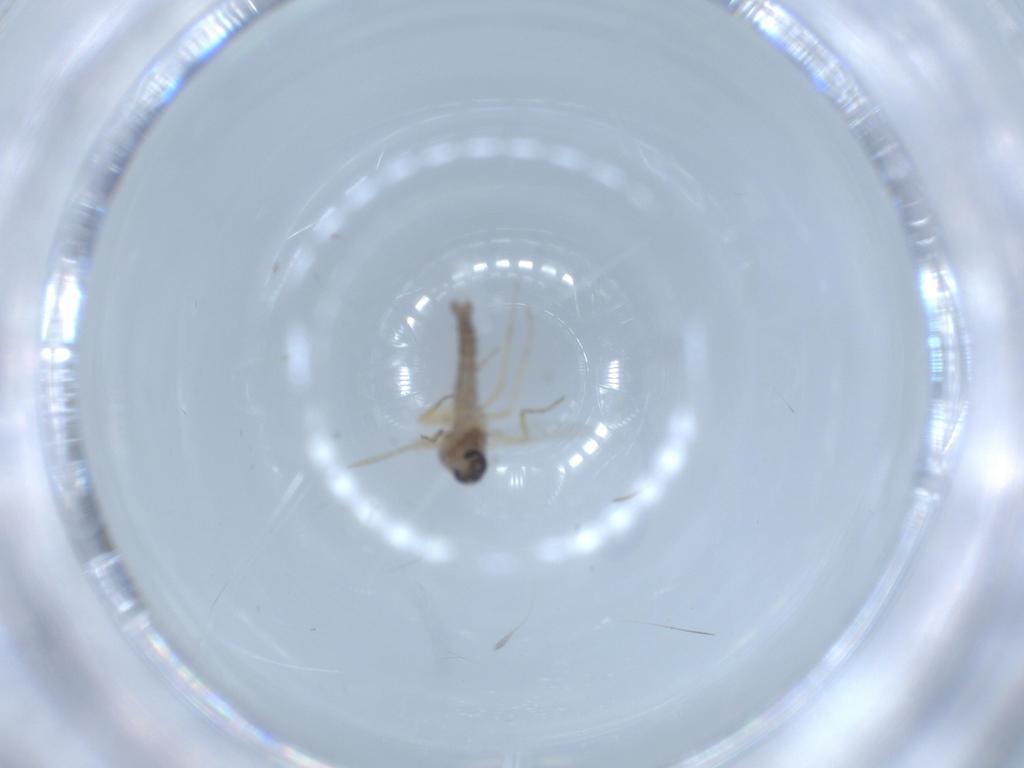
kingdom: Animalia
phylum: Arthropoda
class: Insecta
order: Diptera
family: Ceratopogonidae
